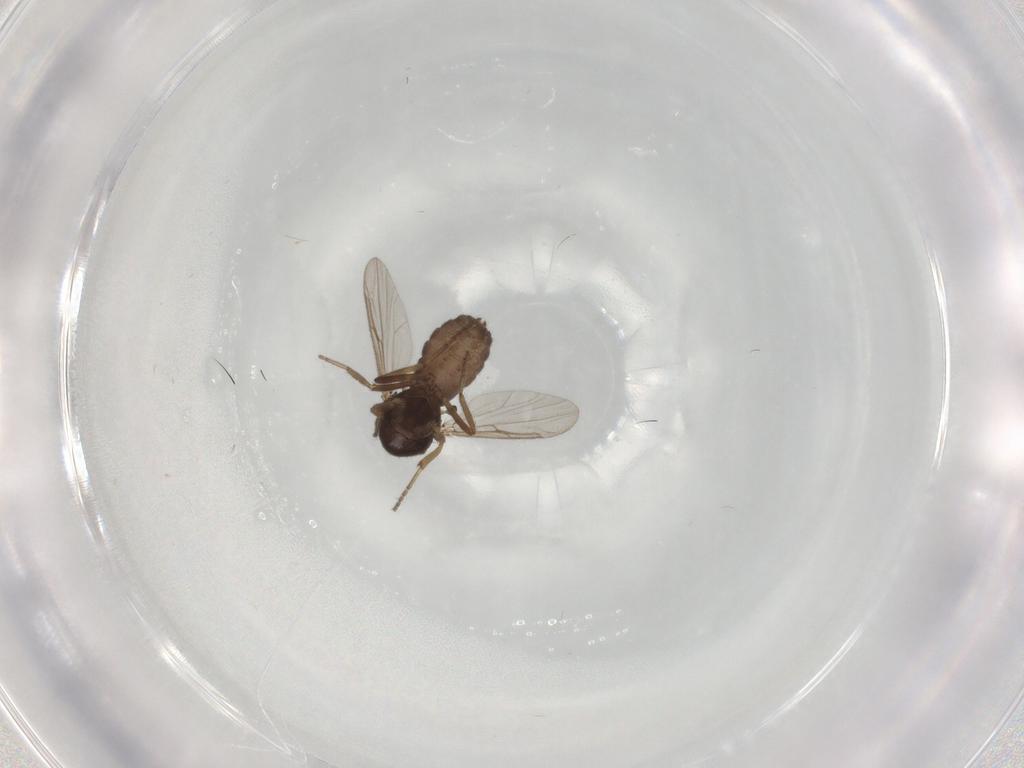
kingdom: Animalia
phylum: Arthropoda
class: Insecta
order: Diptera
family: Ceratopogonidae
